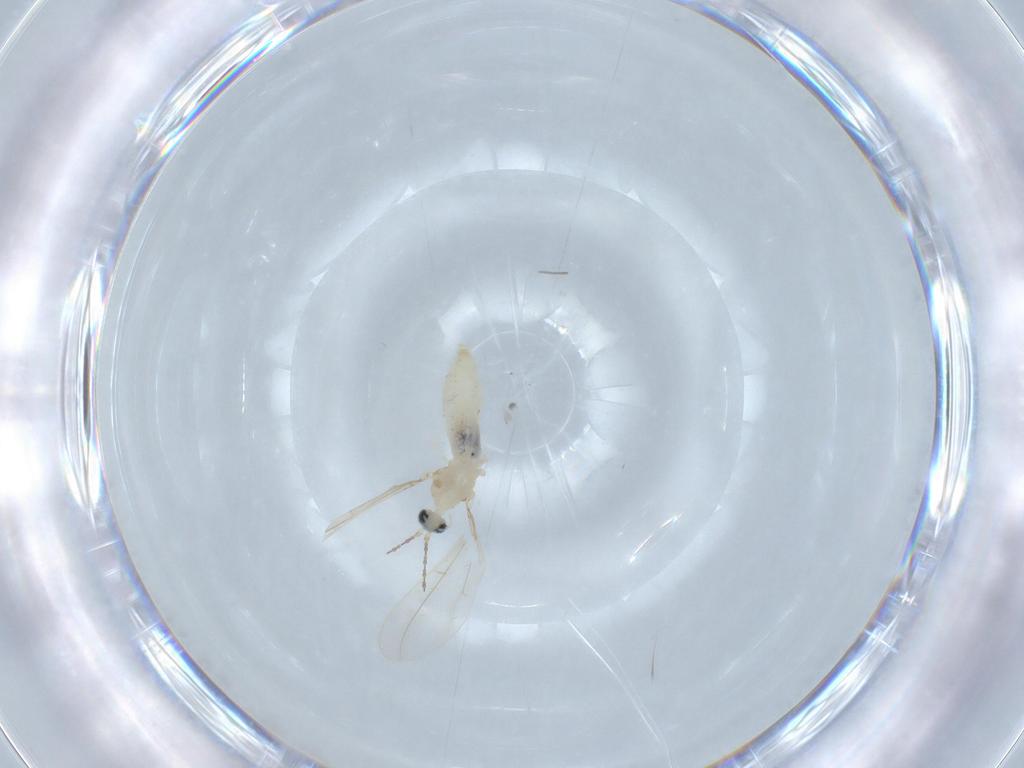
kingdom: Animalia
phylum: Arthropoda
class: Insecta
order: Diptera
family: Cecidomyiidae
